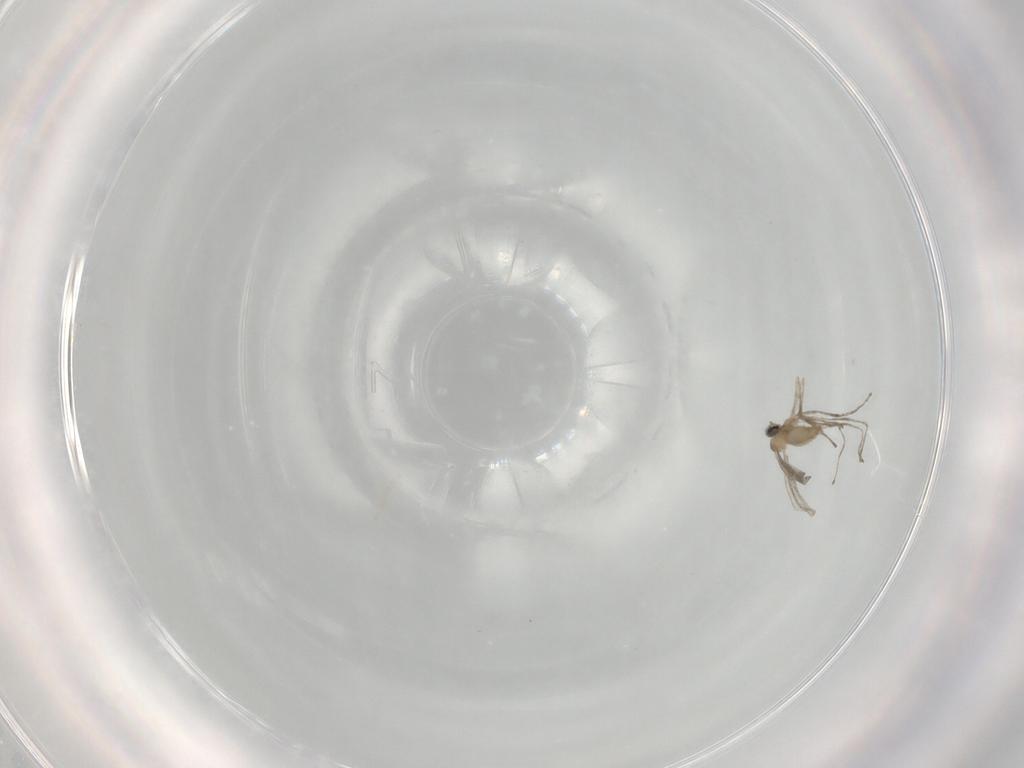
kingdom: Animalia
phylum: Arthropoda
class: Insecta
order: Diptera
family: Cecidomyiidae
